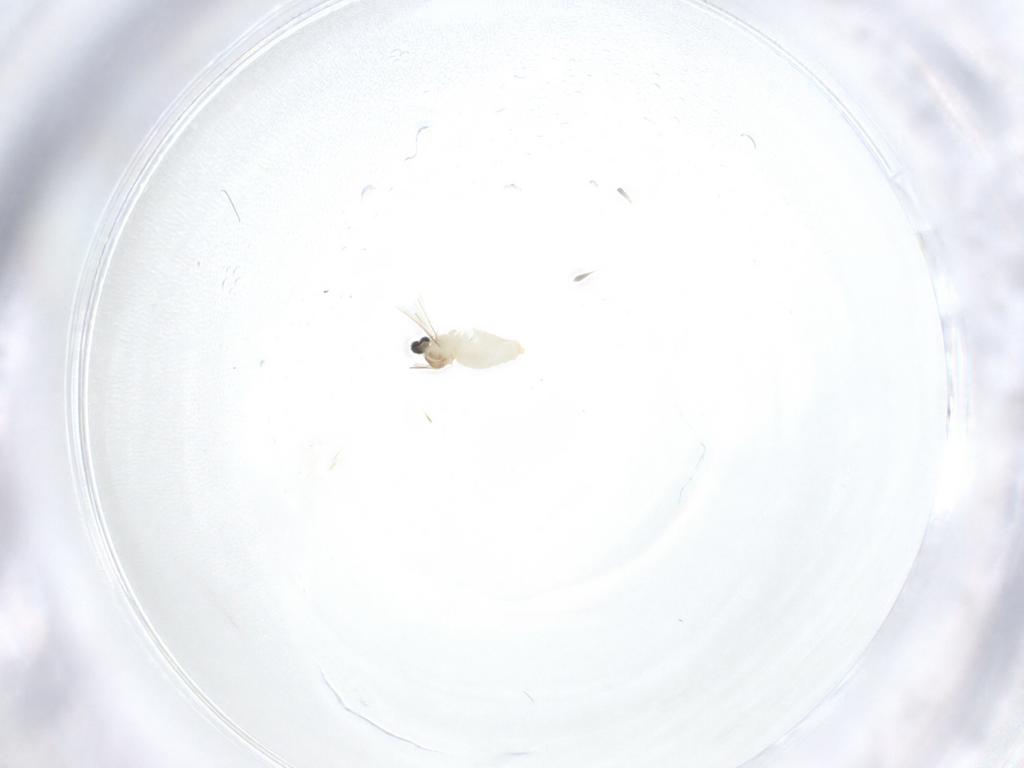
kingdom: Animalia
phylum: Arthropoda
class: Insecta
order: Diptera
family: Cecidomyiidae
